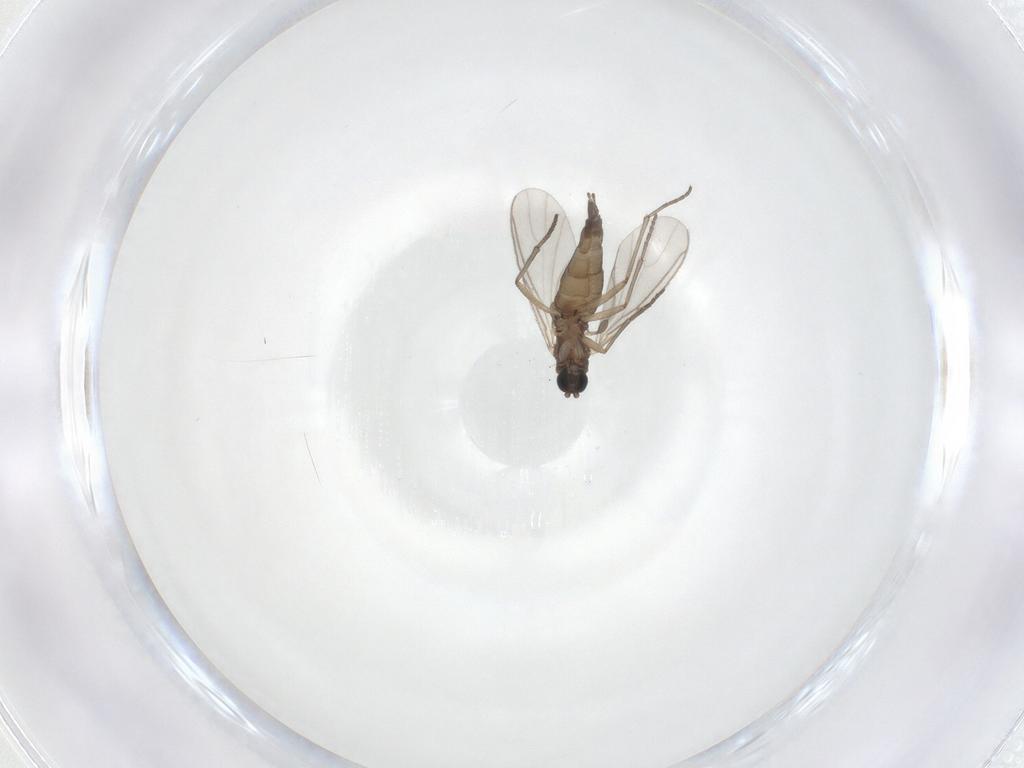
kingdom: Animalia
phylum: Arthropoda
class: Insecta
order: Diptera
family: Sciaridae
